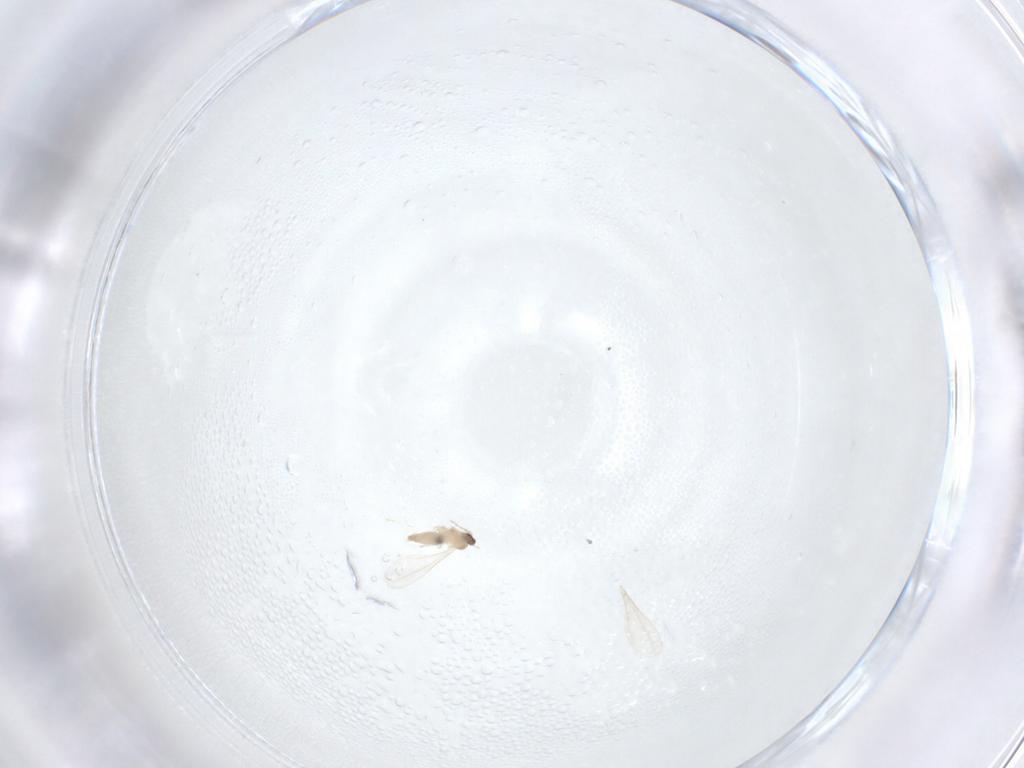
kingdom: Animalia
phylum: Arthropoda
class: Insecta
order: Diptera
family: Cecidomyiidae
